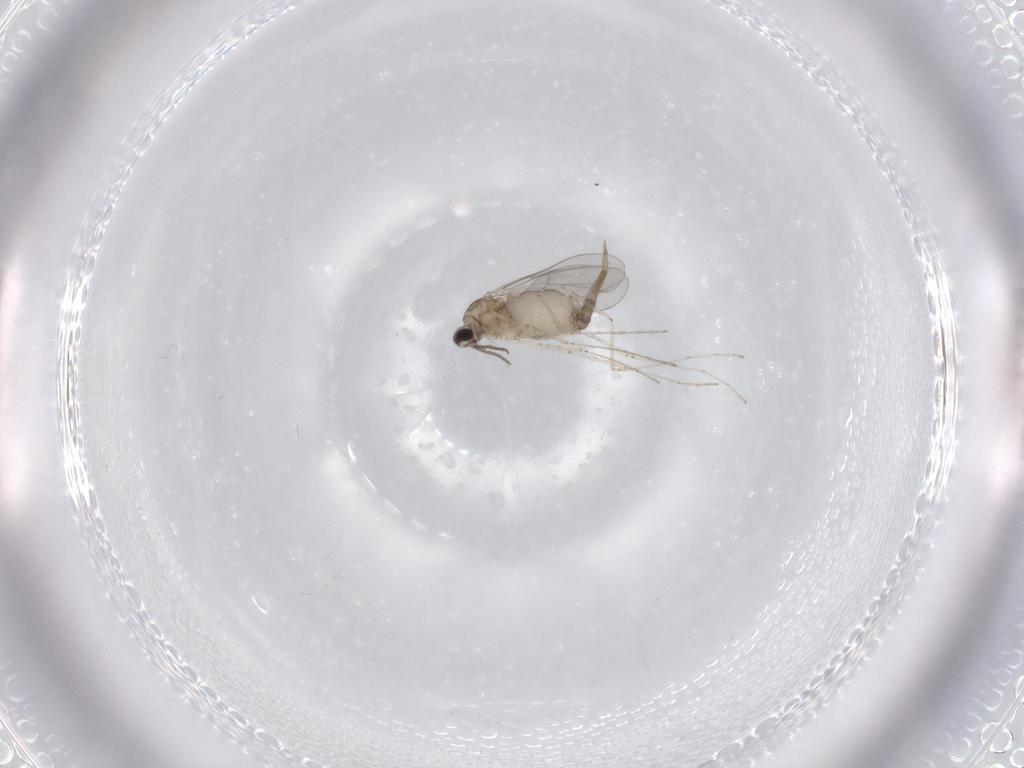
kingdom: Animalia
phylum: Arthropoda
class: Insecta
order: Diptera
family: Cecidomyiidae
